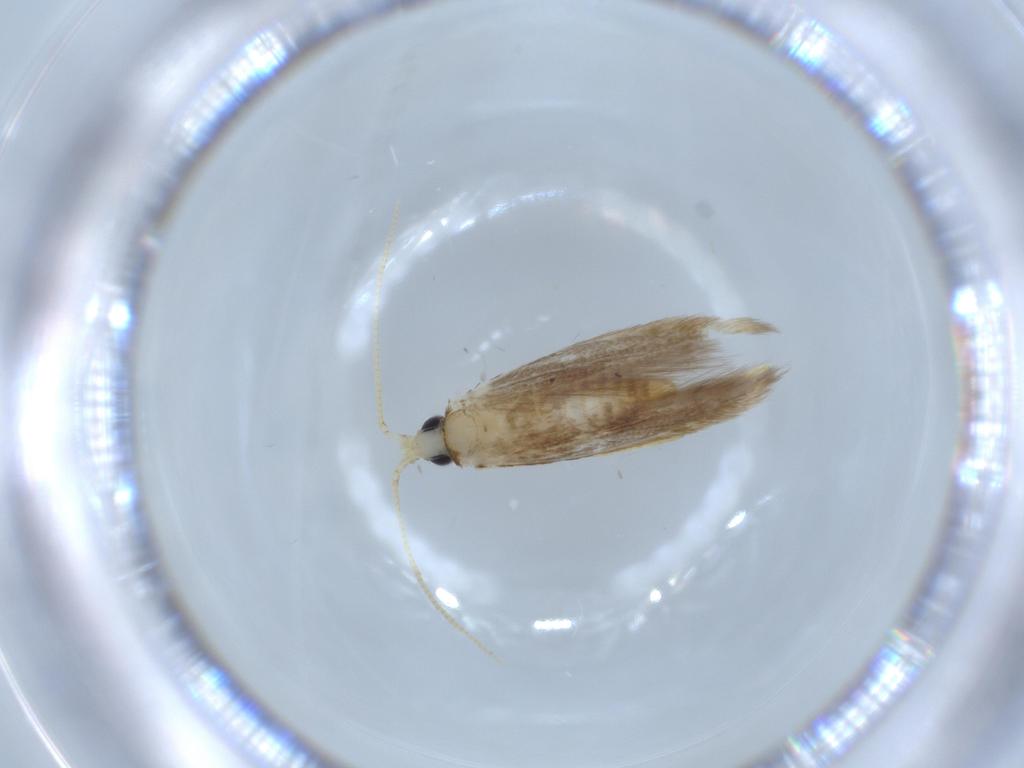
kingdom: Animalia
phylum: Arthropoda
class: Insecta
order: Lepidoptera
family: Tineidae
